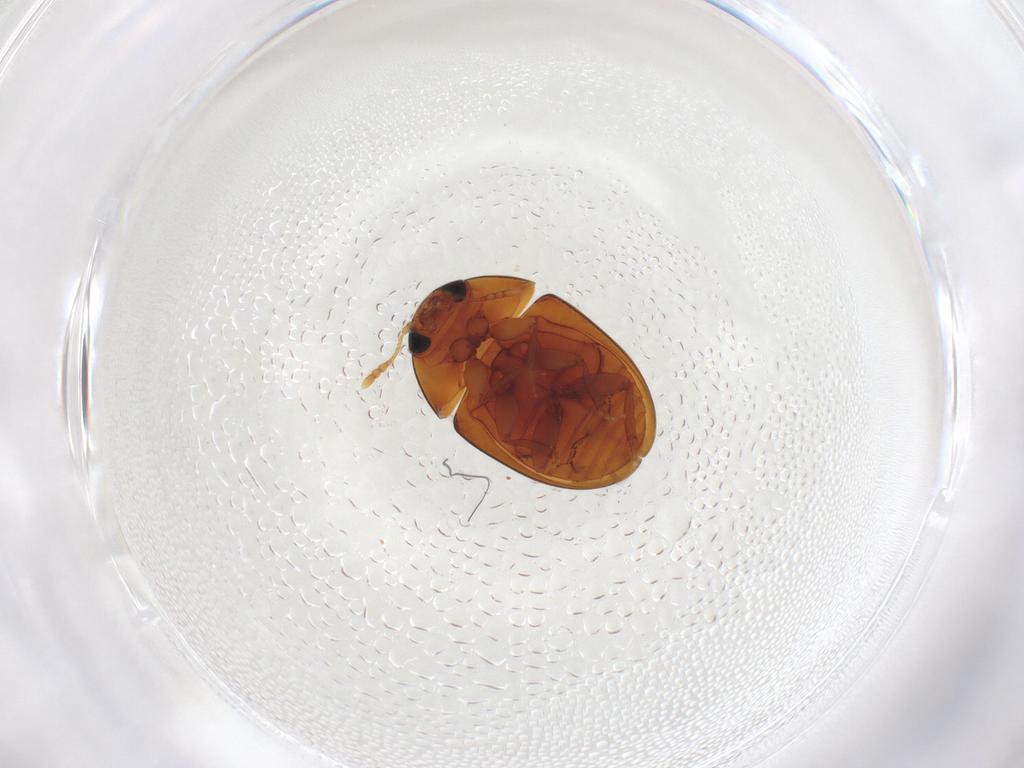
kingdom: Animalia
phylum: Arthropoda
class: Insecta
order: Coleoptera
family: Phalacridae
